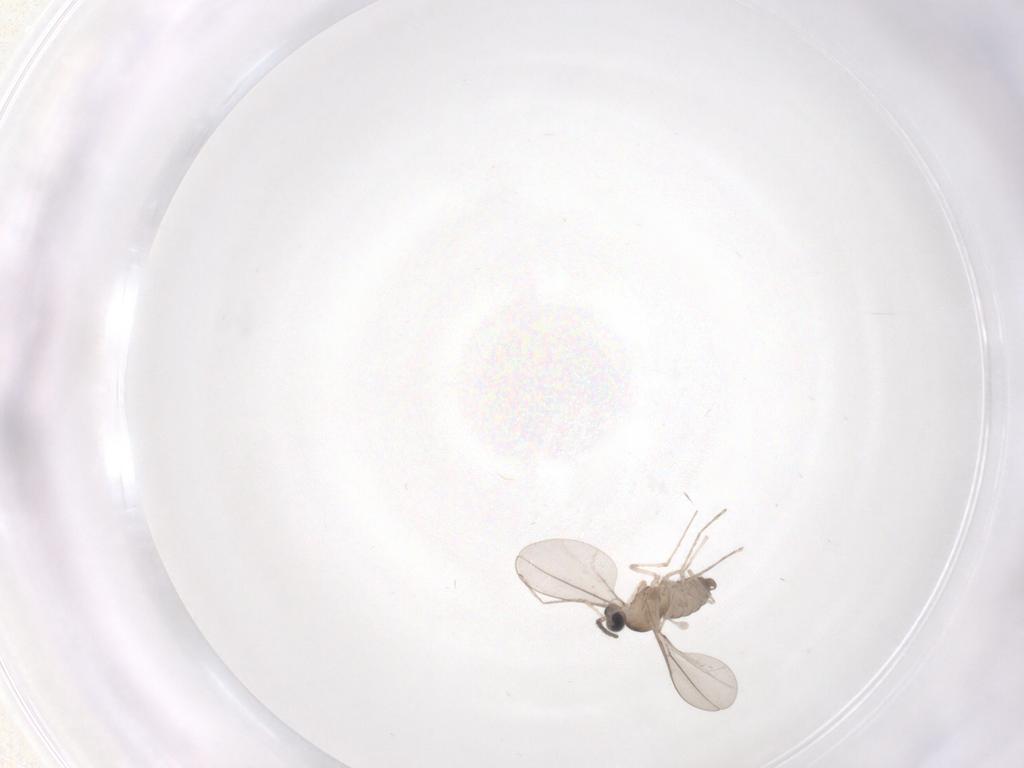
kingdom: Animalia
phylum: Arthropoda
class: Insecta
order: Diptera
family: Cecidomyiidae
